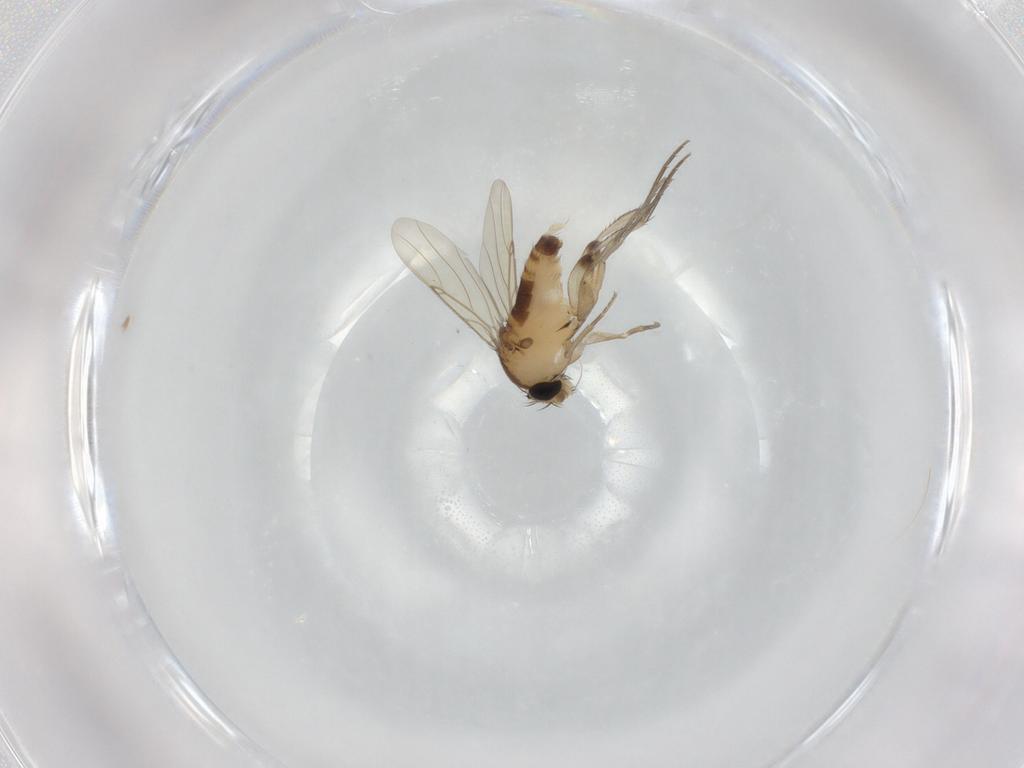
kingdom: Animalia
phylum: Arthropoda
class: Insecta
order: Diptera
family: Phoridae
